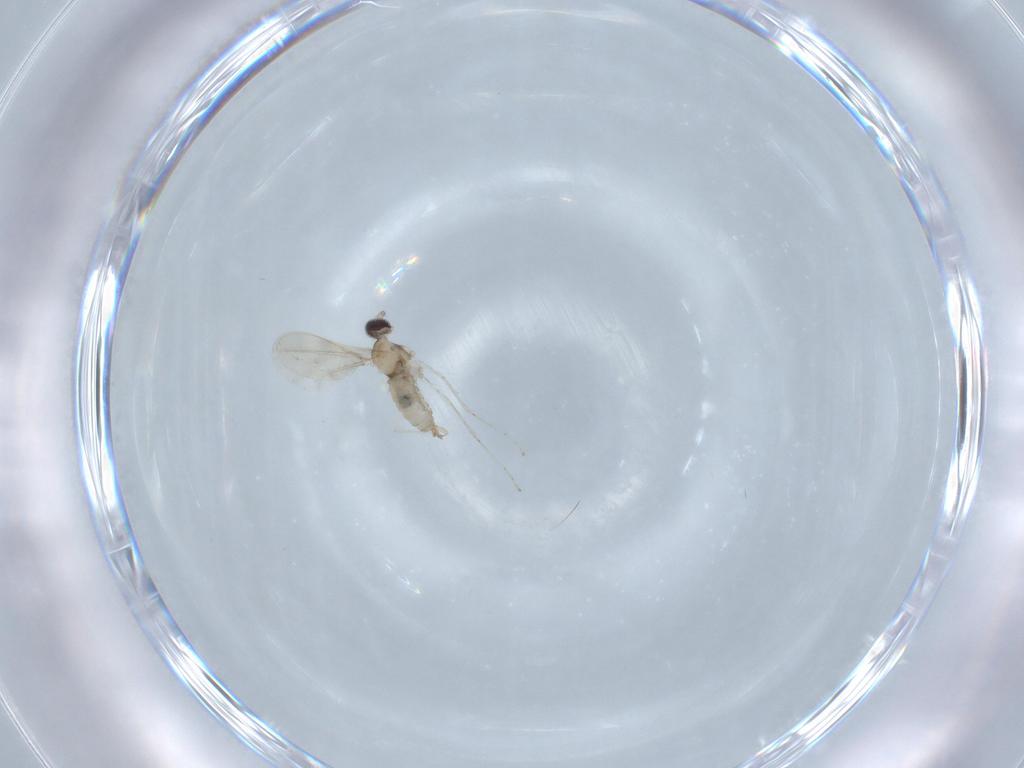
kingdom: Animalia
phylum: Arthropoda
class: Insecta
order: Diptera
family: Cecidomyiidae
